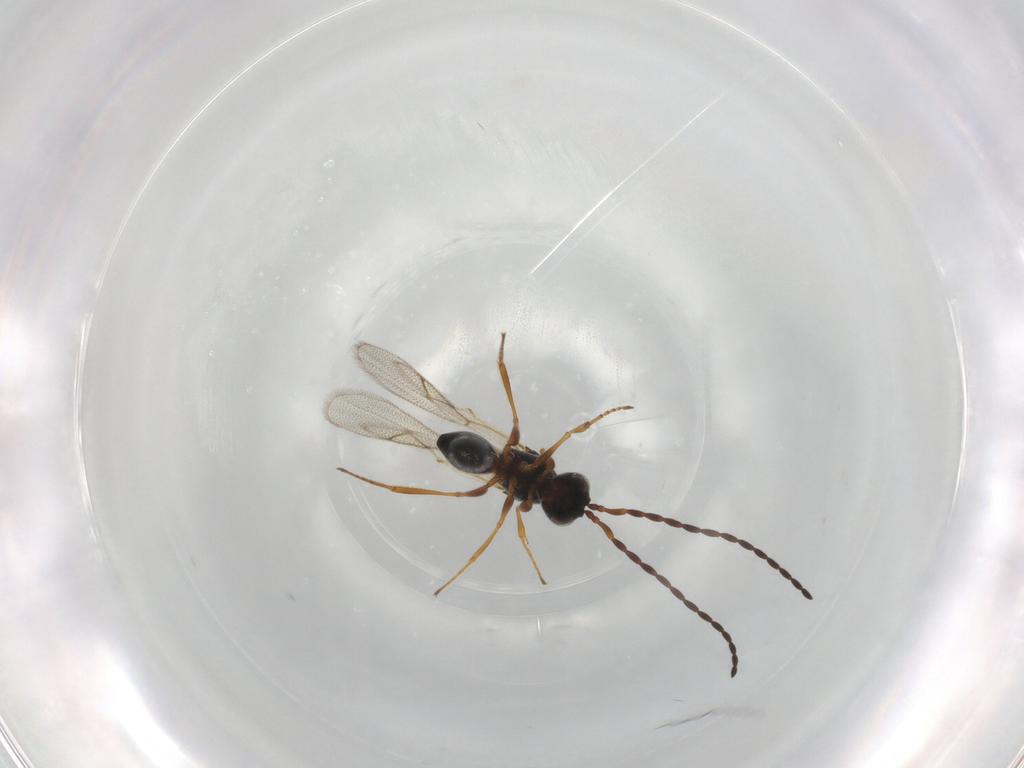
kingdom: Animalia
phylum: Arthropoda
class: Insecta
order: Hymenoptera
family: Figitidae
